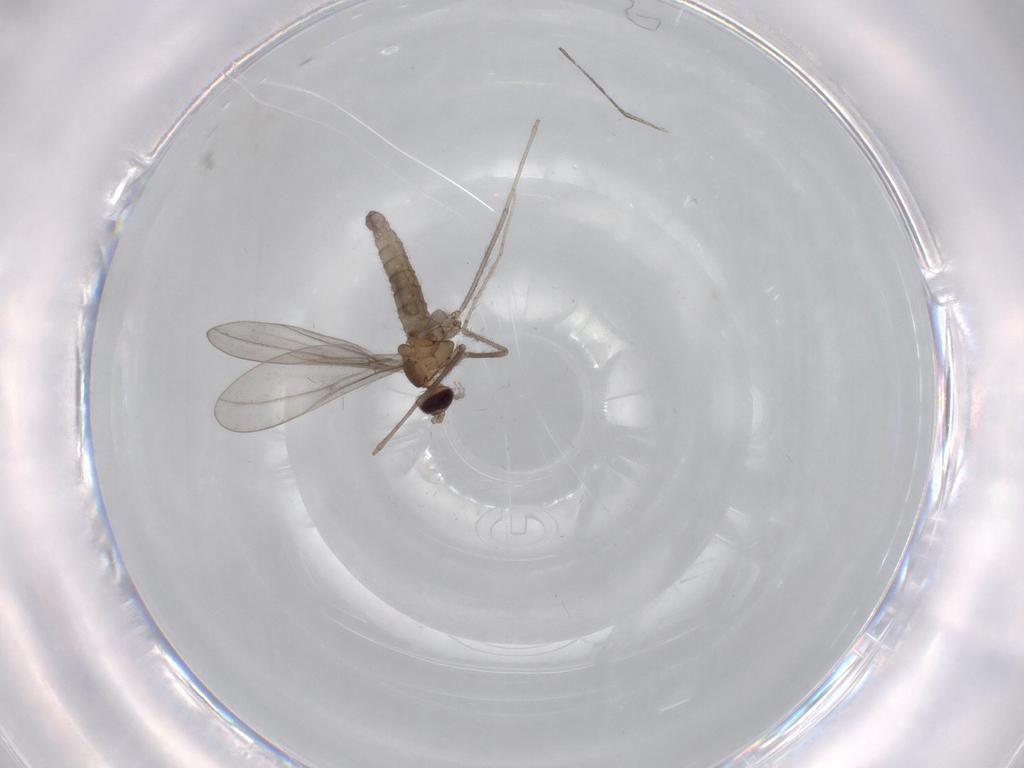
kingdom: Animalia
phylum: Arthropoda
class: Insecta
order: Diptera
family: Cecidomyiidae
